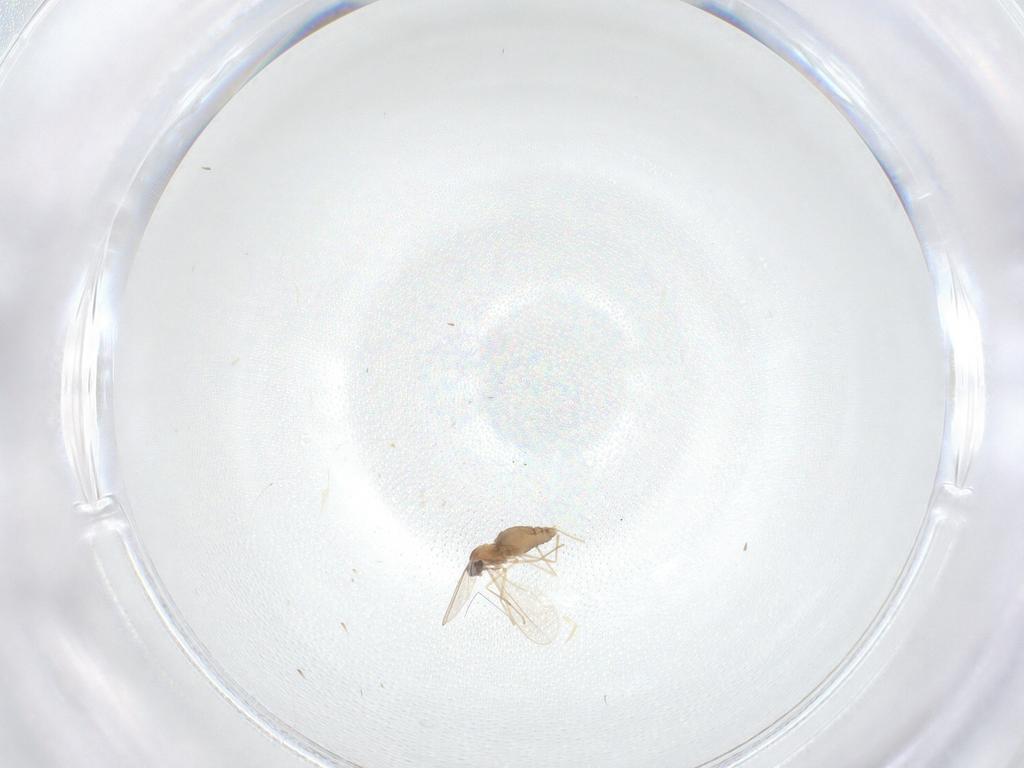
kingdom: Animalia
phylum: Arthropoda
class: Insecta
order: Diptera
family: Cecidomyiidae
